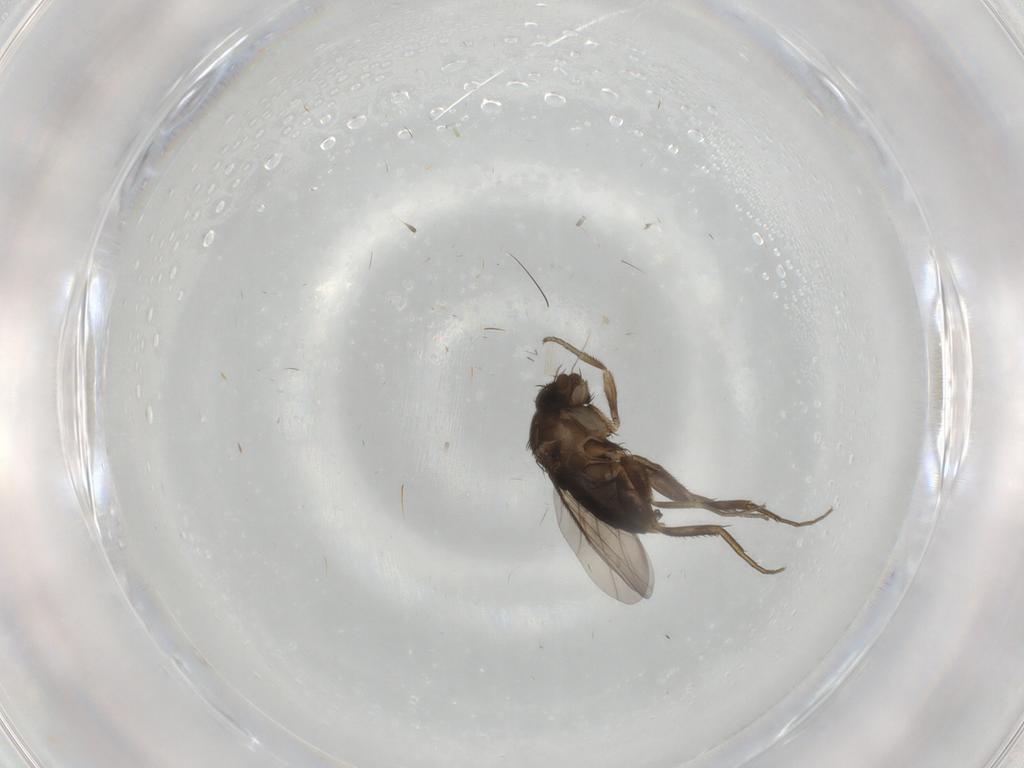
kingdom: Animalia
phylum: Arthropoda
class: Insecta
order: Diptera
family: Phoridae
